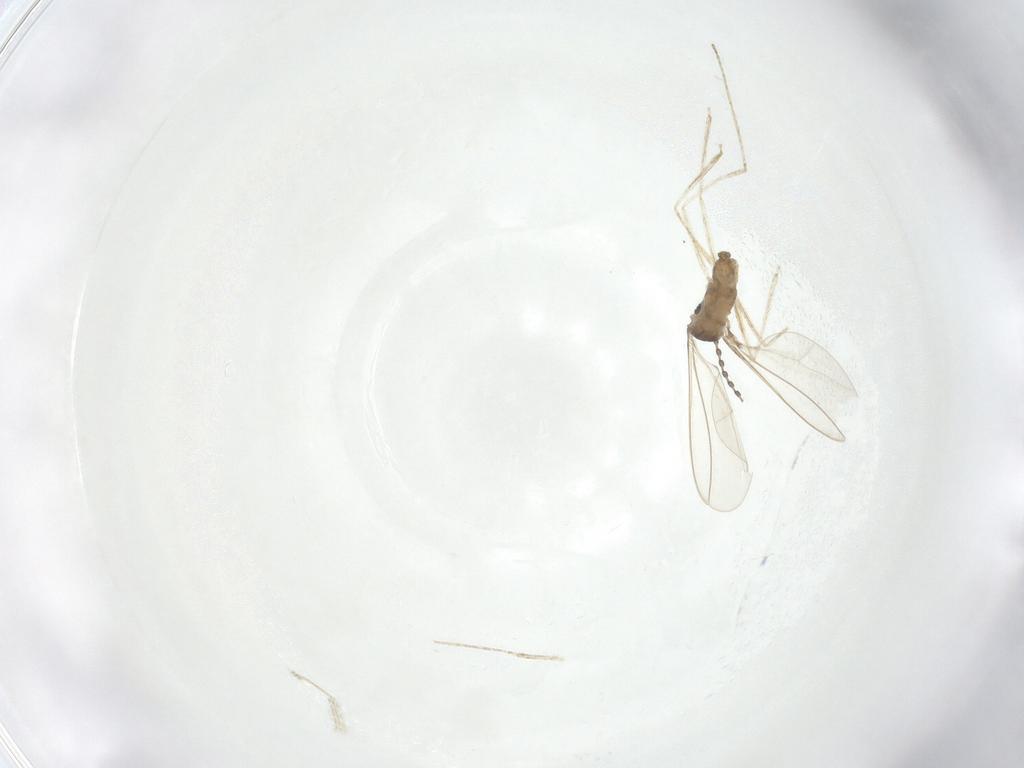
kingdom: Animalia
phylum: Arthropoda
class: Insecta
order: Diptera
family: Cecidomyiidae
